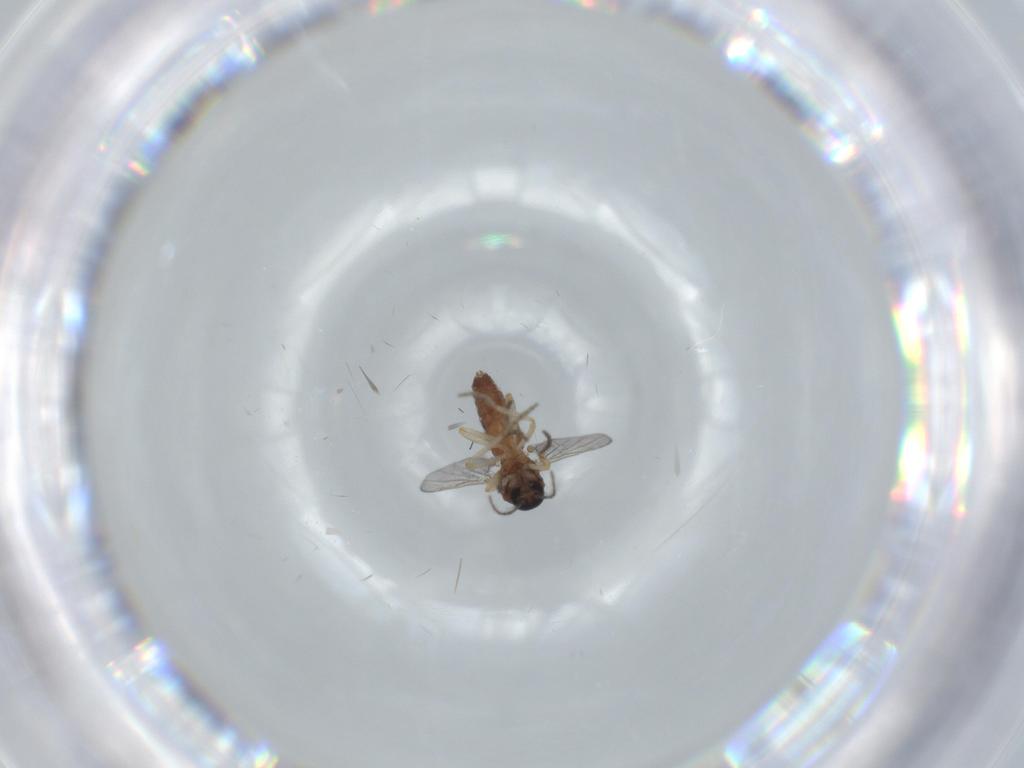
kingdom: Animalia
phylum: Arthropoda
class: Insecta
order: Diptera
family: Ceratopogonidae
